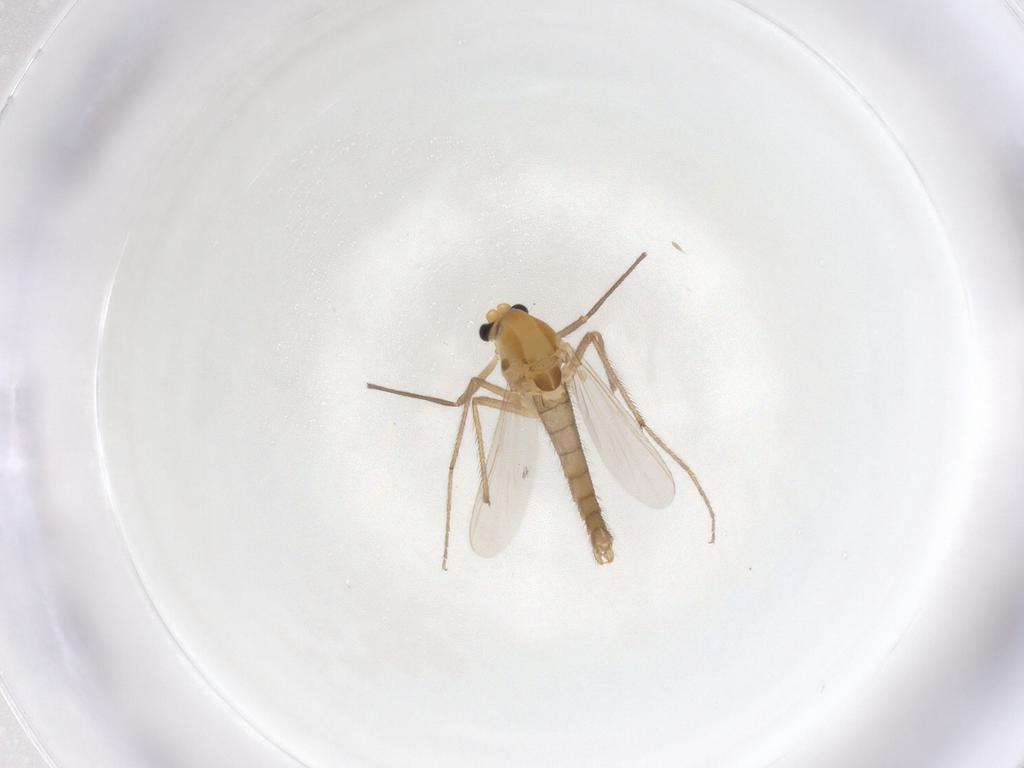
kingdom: Animalia
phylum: Arthropoda
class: Insecta
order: Diptera
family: Chironomidae
